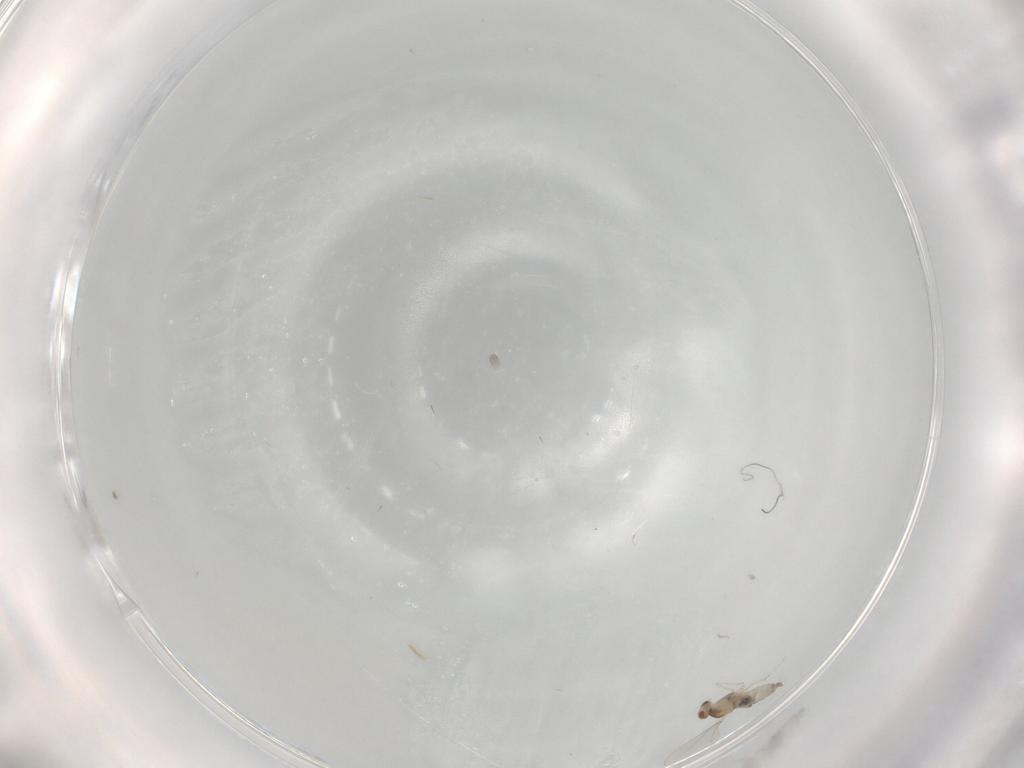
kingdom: Animalia
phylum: Arthropoda
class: Insecta
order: Diptera
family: Cecidomyiidae
